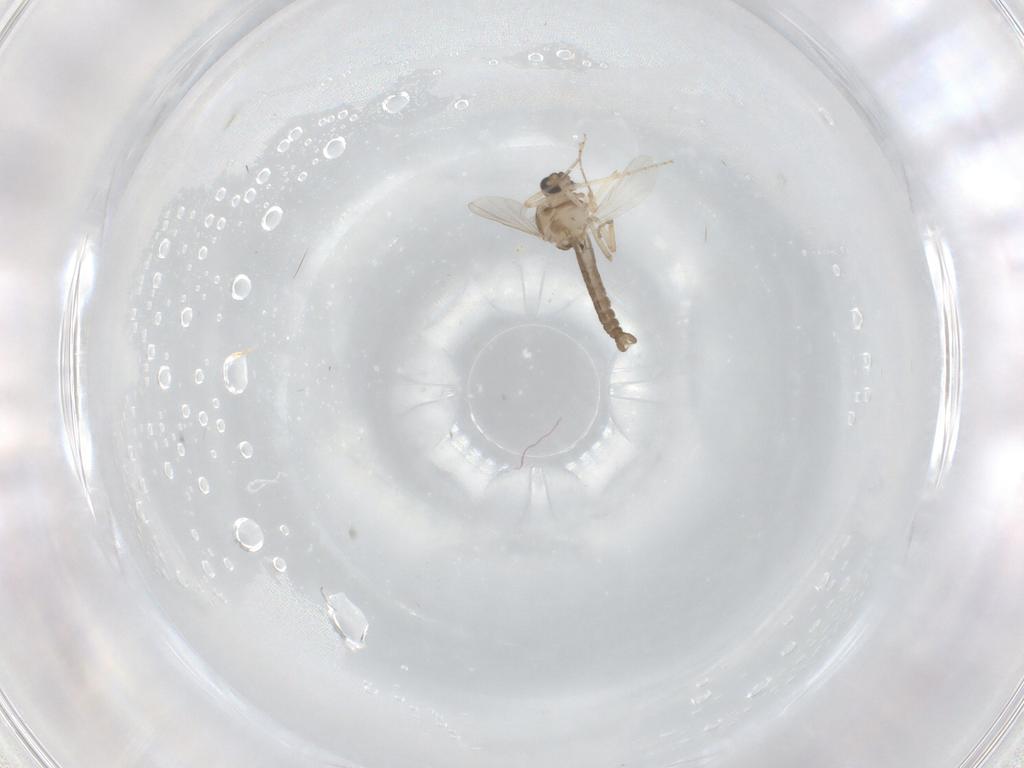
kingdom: Animalia
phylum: Arthropoda
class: Insecta
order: Diptera
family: Ceratopogonidae
